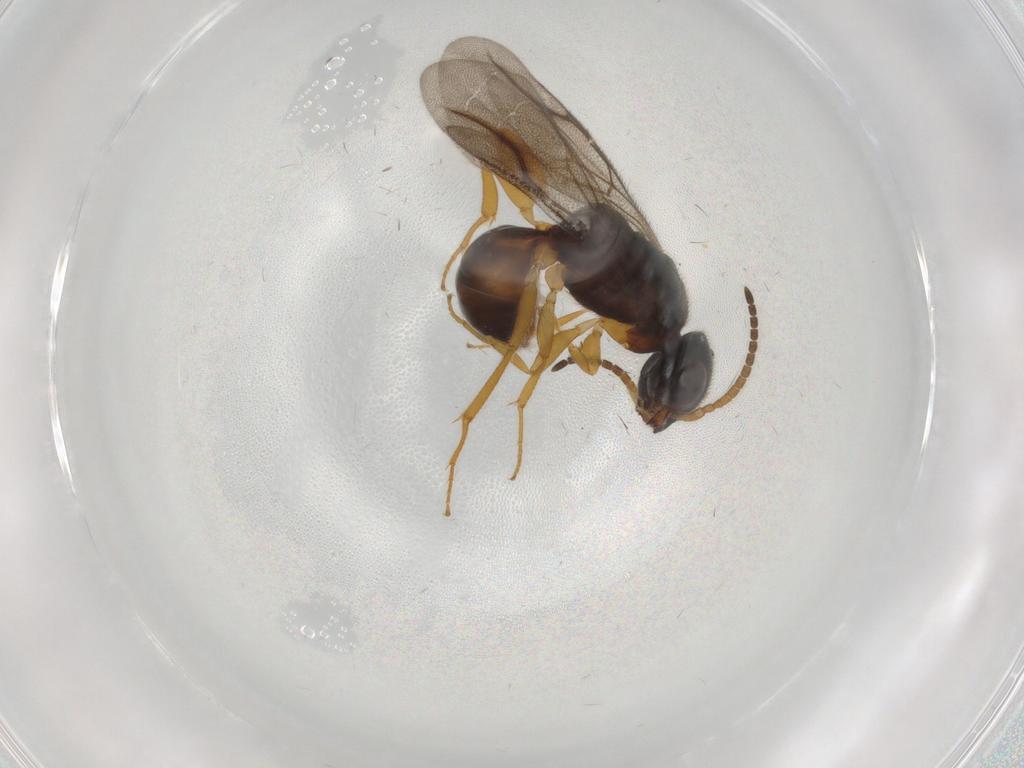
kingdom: Animalia
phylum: Arthropoda
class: Insecta
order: Hymenoptera
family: Bethylidae
